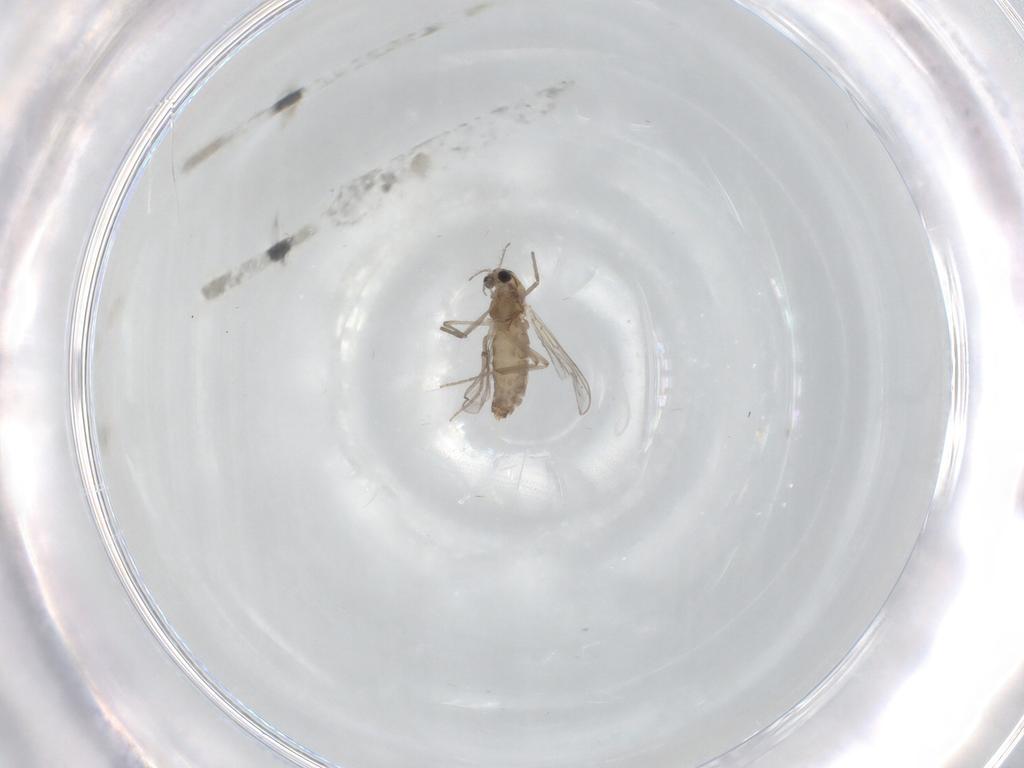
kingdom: Animalia
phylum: Arthropoda
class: Insecta
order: Diptera
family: Chironomidae
